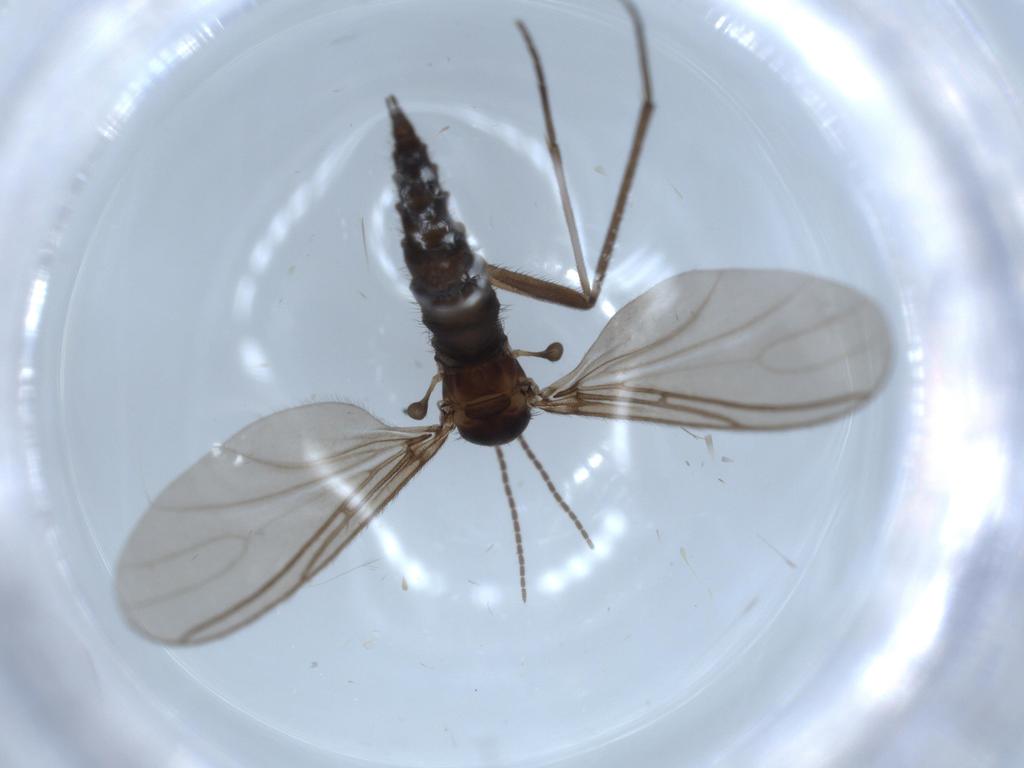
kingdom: Animalia
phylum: Arthropoda
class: Insecta
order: Diptera
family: Sciaridae
